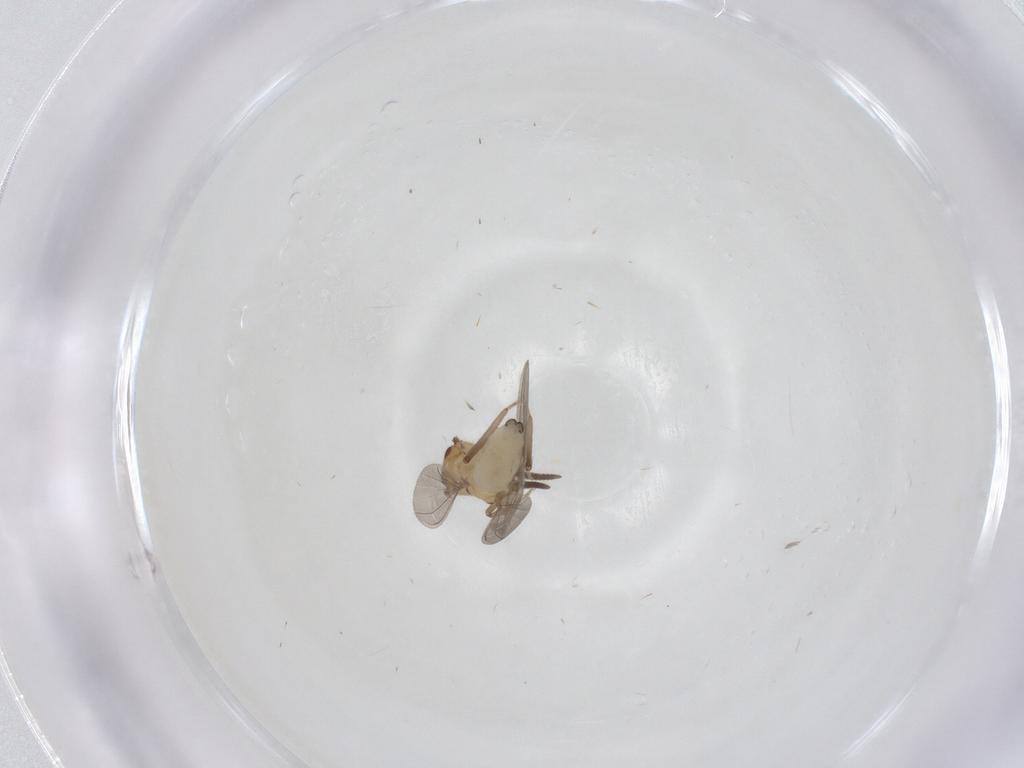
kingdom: Animalia
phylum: Arthropoda
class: Insecta
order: Neuroptera
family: Coniopterygidae
